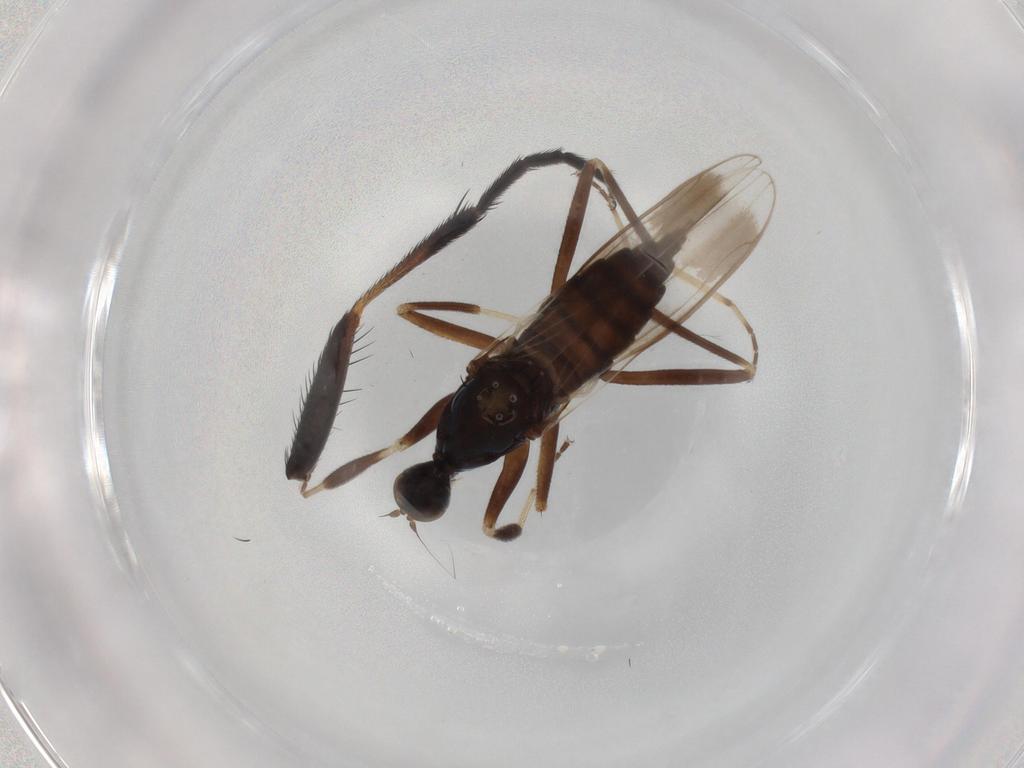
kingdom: Animalia
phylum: Arthropoda
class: Insecta
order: Diptera
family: Hybotidae
